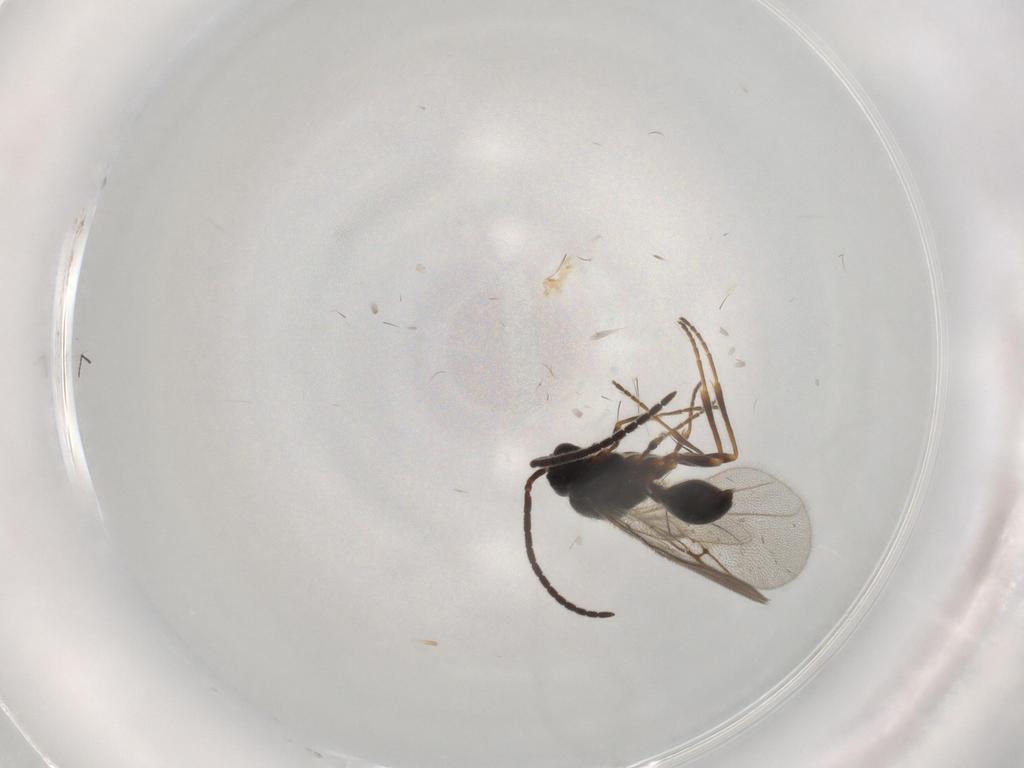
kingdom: Animalia
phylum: Arthropoda
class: Insecta
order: Hymenoptera
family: Diapriidae
